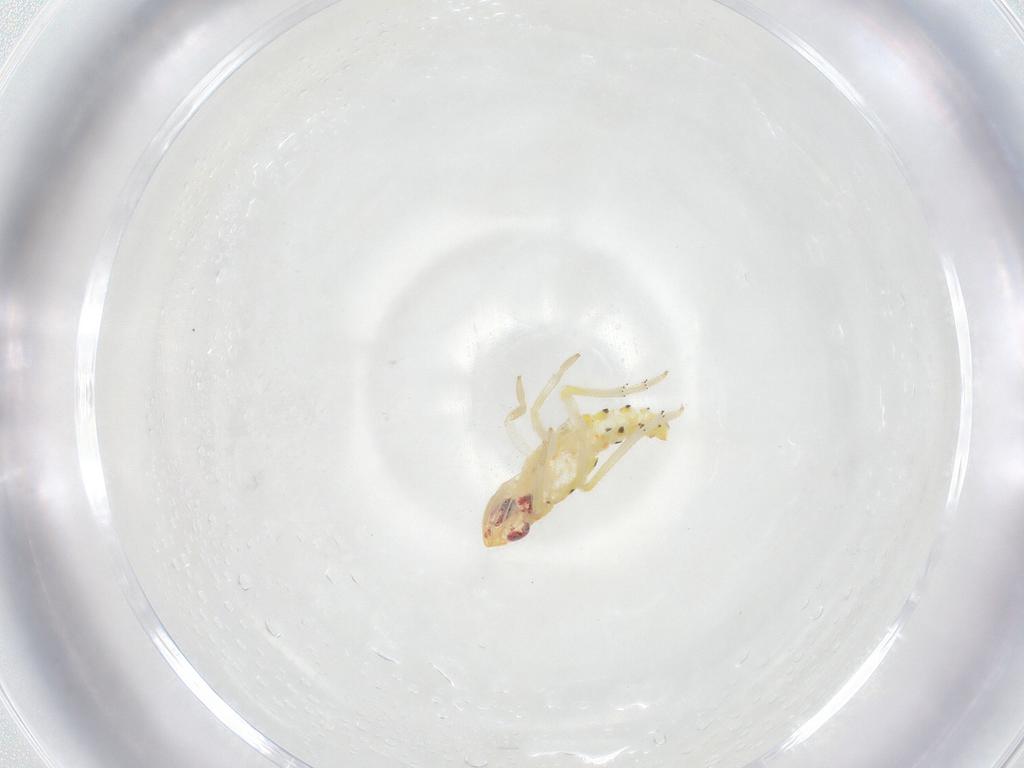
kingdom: Animalia
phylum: Arthropoda
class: Insecta
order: Hemiptera
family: Tropiduchidae
